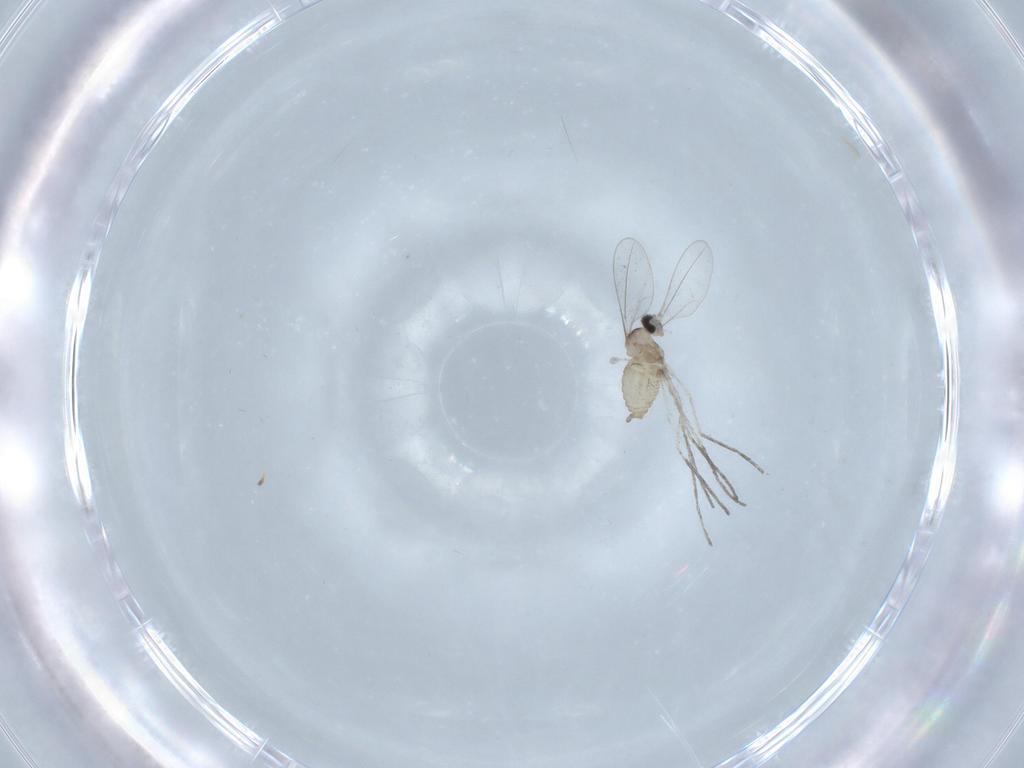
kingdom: Animalia
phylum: Arthropoda
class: Insecta
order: Diptera
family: Cecidomyiidae
